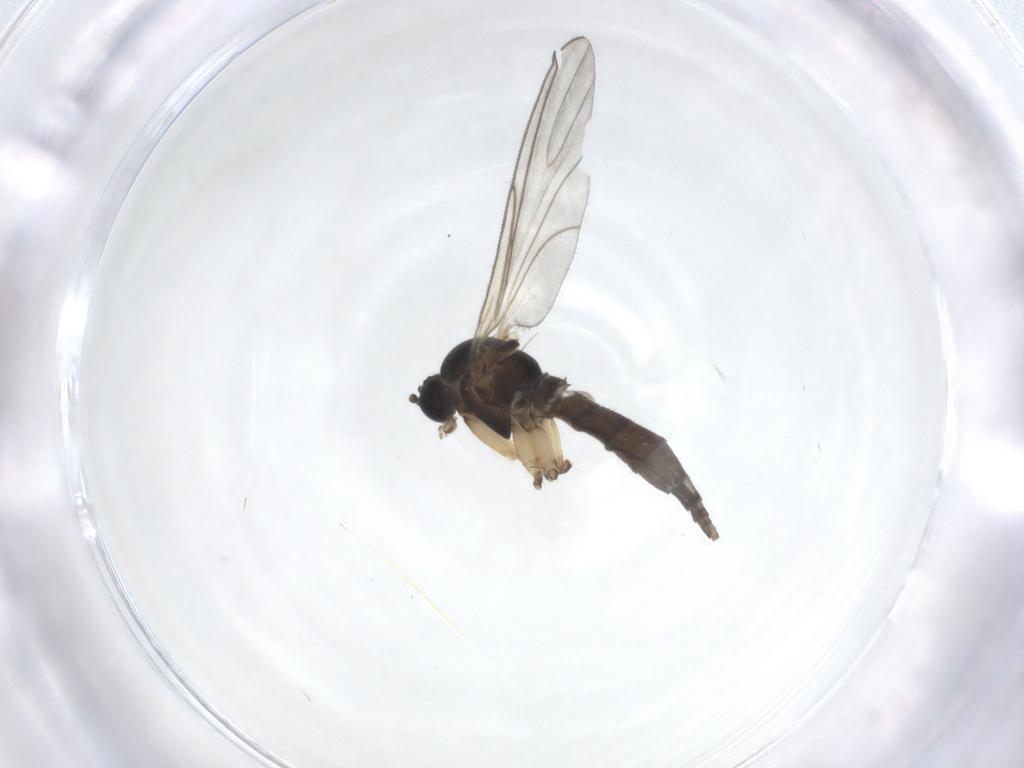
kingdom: Animalia
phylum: Arthropoda
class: Insecta
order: Diptera
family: Sciaridae
